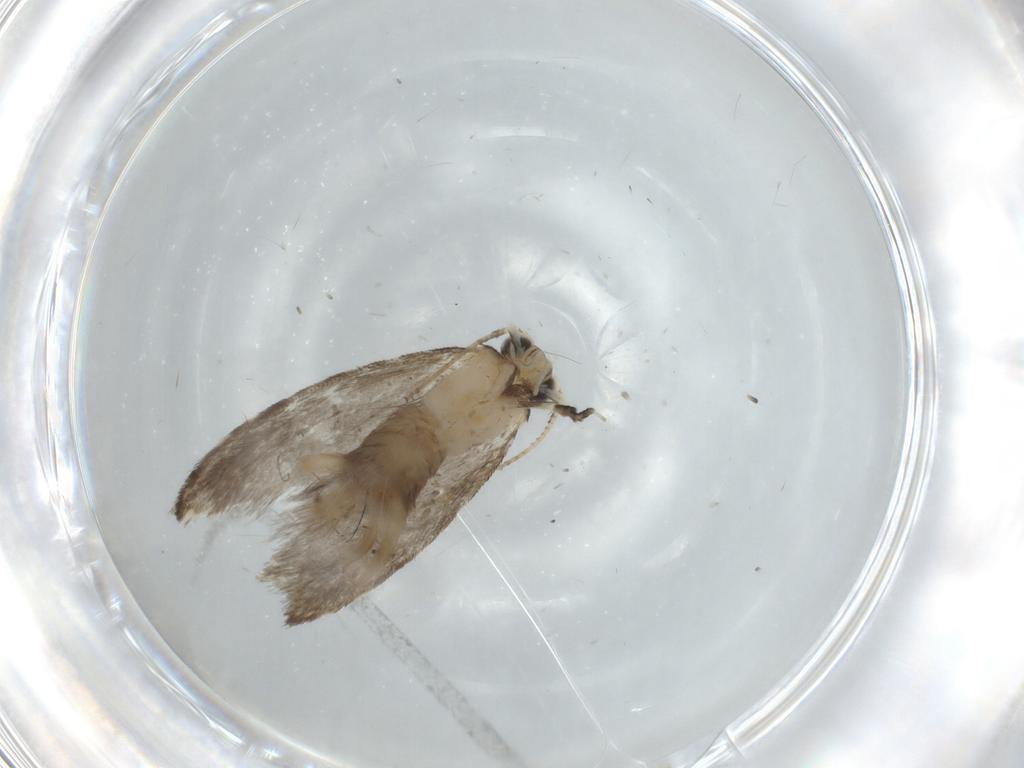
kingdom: Animalia
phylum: Arthropoda
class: Insecta
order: Lepidoptera
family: Tineidae
